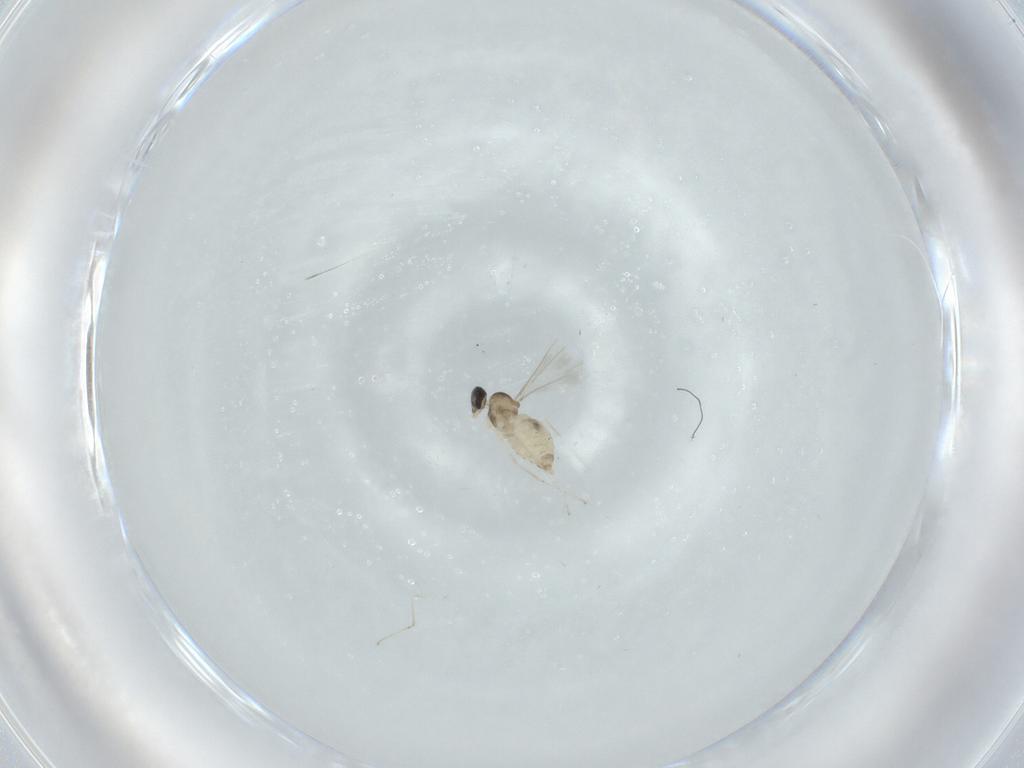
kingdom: Animalia
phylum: Arthropoda
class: Insecta
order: Diptera
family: Cecidomyiidae
